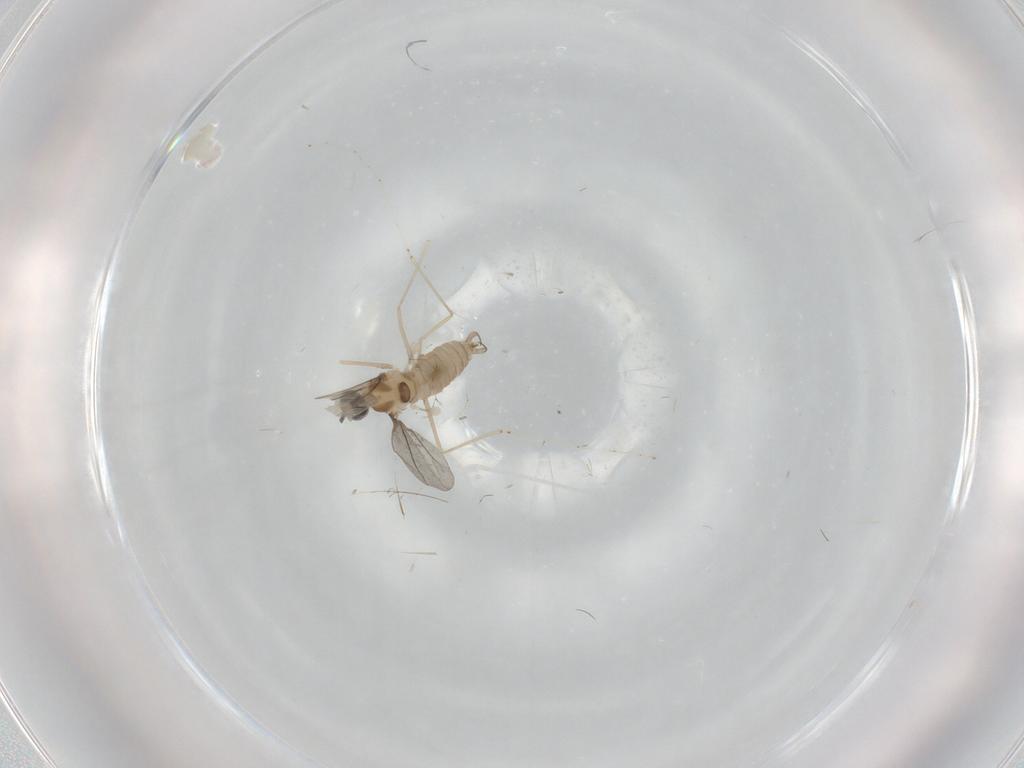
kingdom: Animalia
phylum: Arthropoda
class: Insecta
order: Diptera
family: Cecidomyiidae
